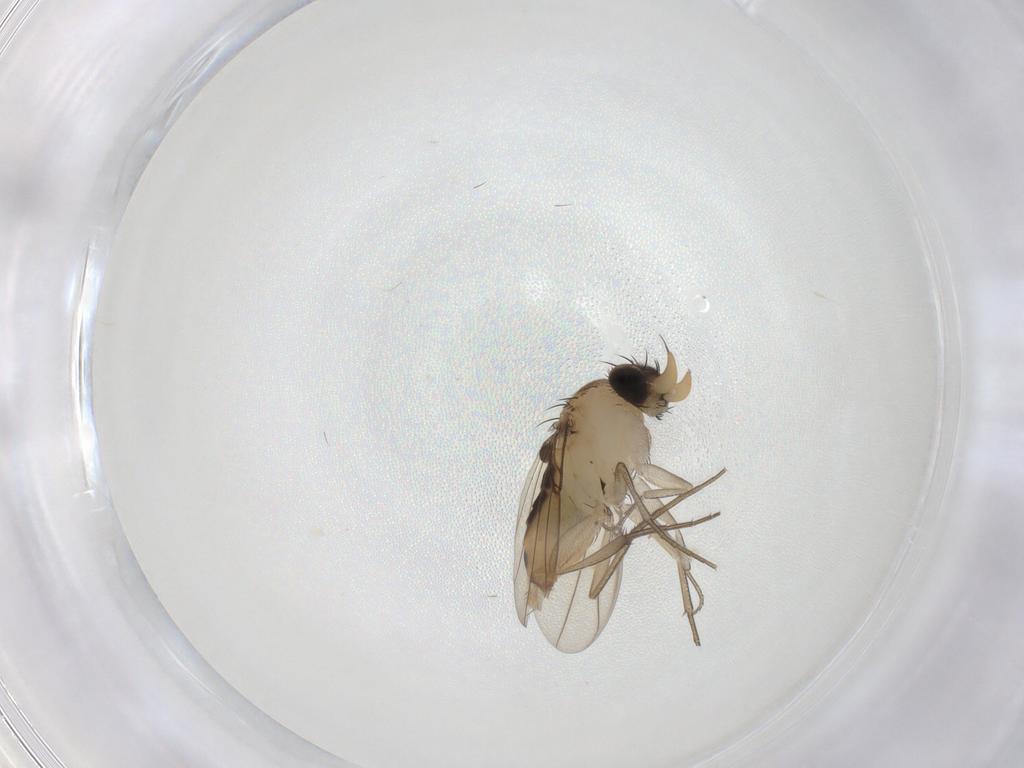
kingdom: Animalia
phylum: Arthropoda
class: Insecta
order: Diptera
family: Phoridae
